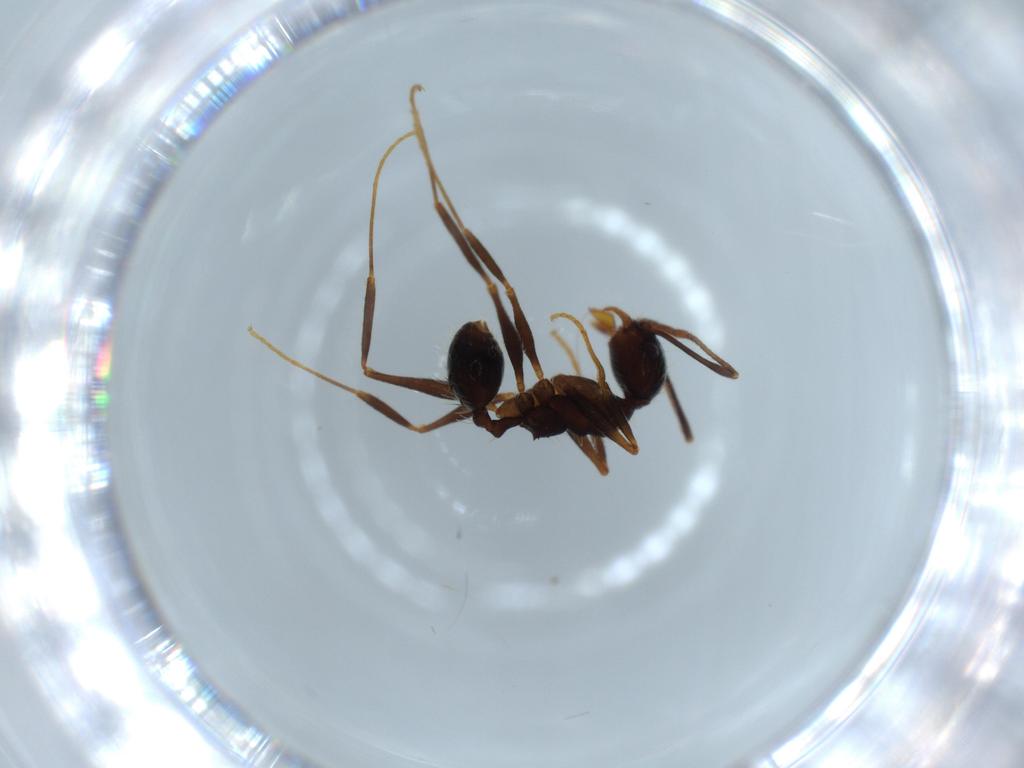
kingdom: Animalia
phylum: Arthropoda
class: Insecta
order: Hymenoptera
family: Formicidae
